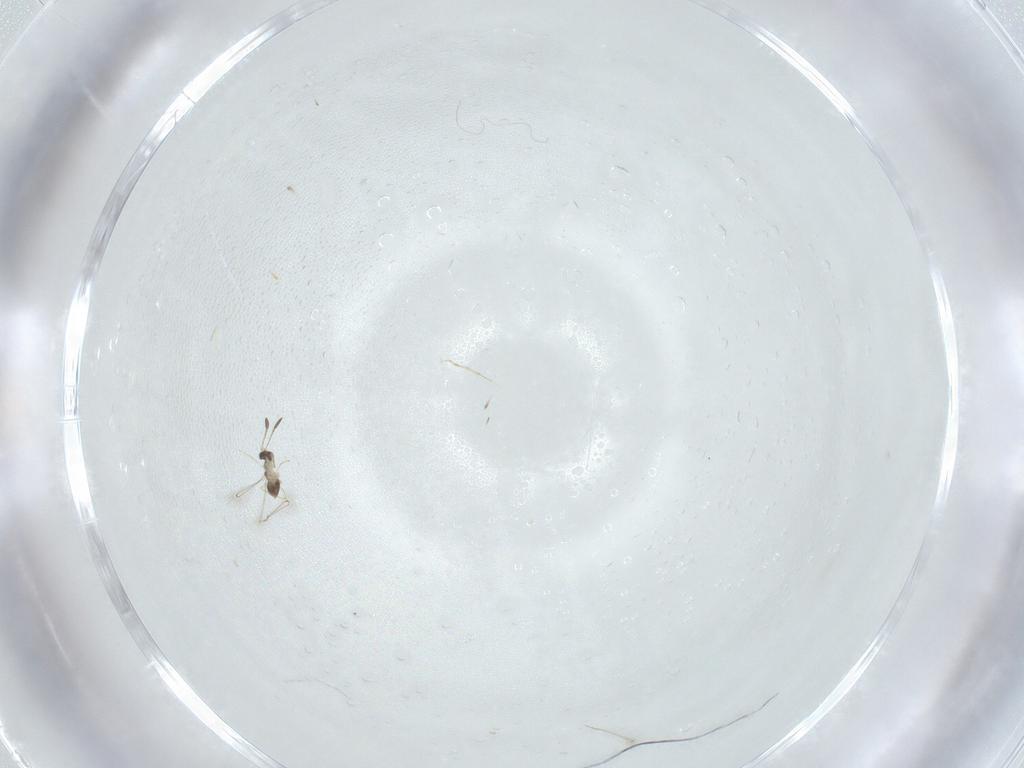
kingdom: Animalia
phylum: Arthropoda
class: Insecta
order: Diptera
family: Cecidomyiidae
